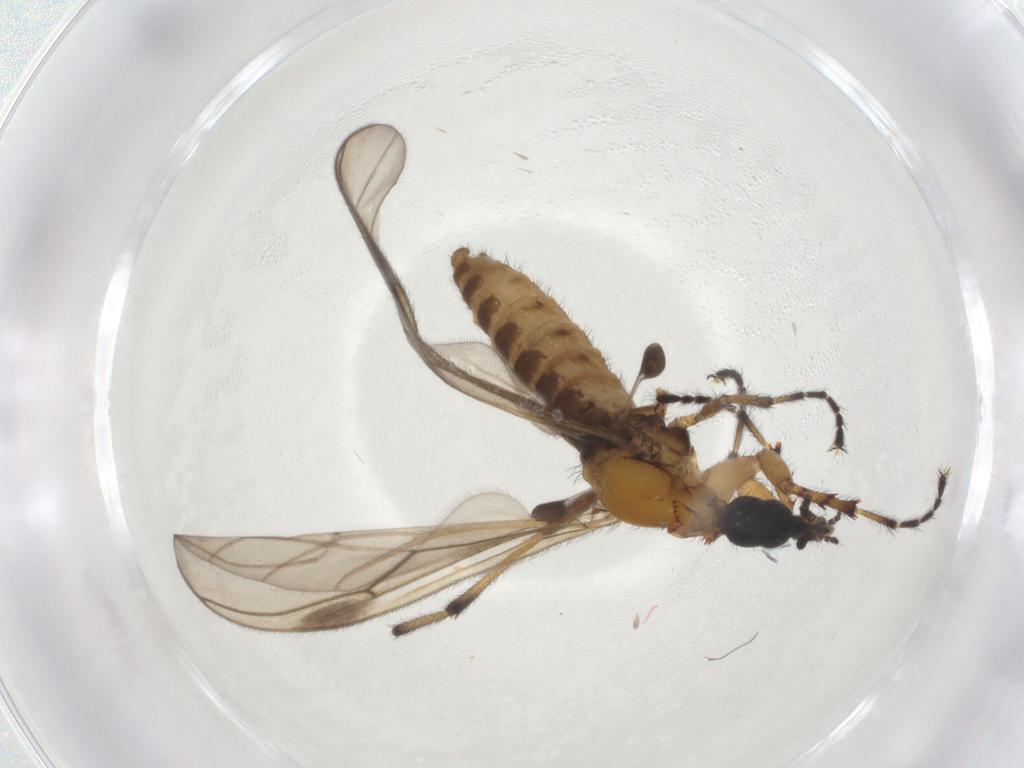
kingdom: Animalia
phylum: Arthropoda
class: Insecta
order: Diptera
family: Bibionidae
